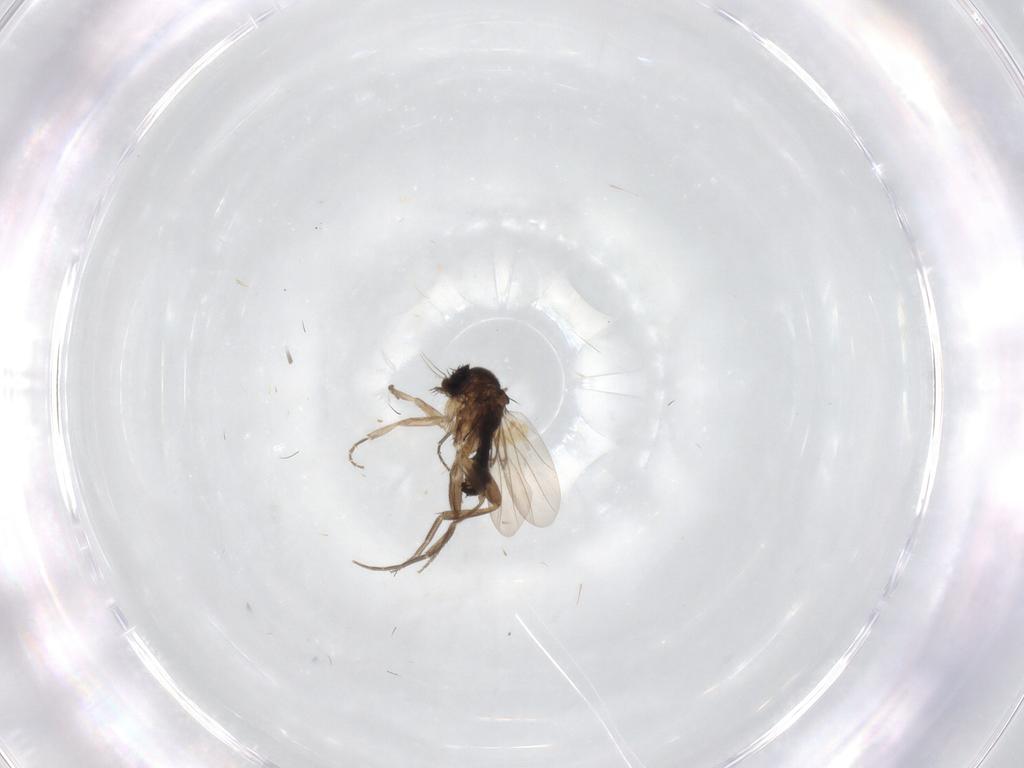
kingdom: Animalia
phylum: Arthropoda
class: Insecta
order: Diptera
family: Phoridae
